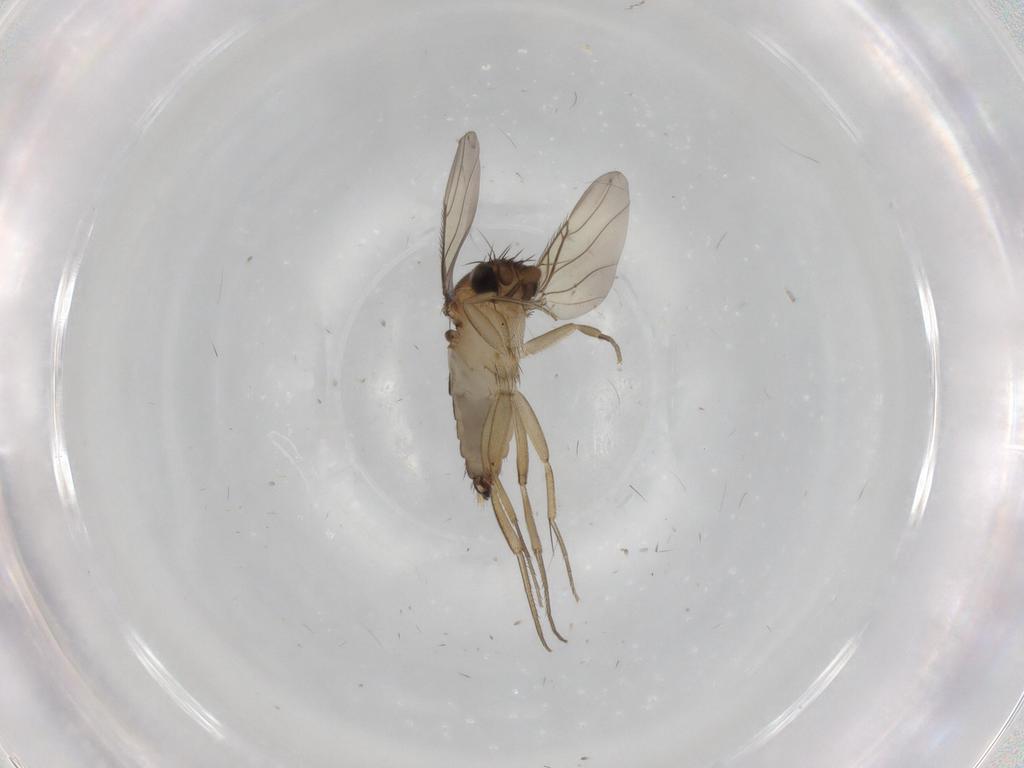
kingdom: Animalia
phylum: Arthropoda
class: Insecta
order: Diptera
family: Phoridae
